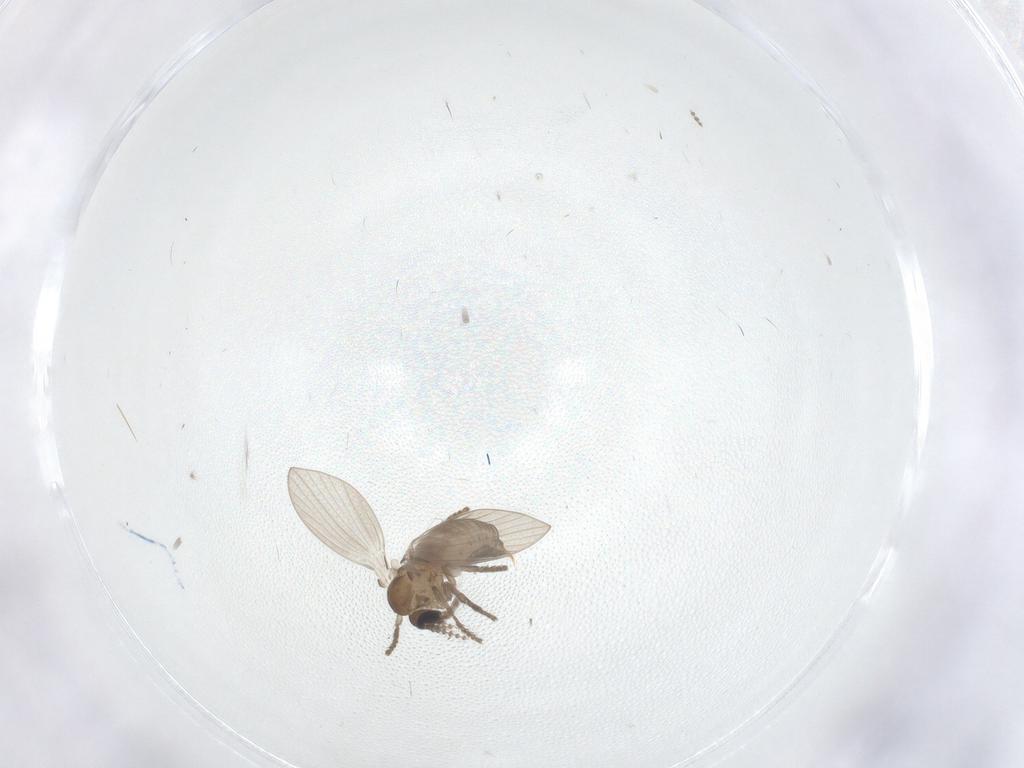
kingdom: Animalia
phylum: Arthropoda
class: Insecta
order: Diptera
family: Psychodidae
